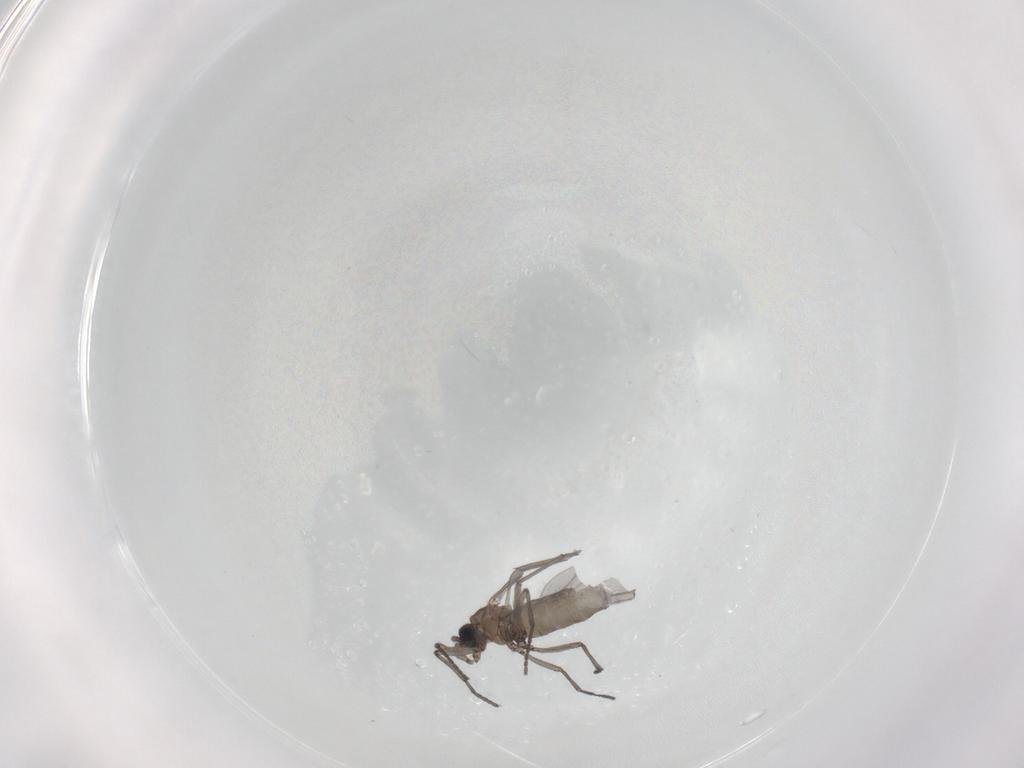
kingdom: Animalia
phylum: Arthropoda
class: Insecta
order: Diptera
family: Sciaridae
